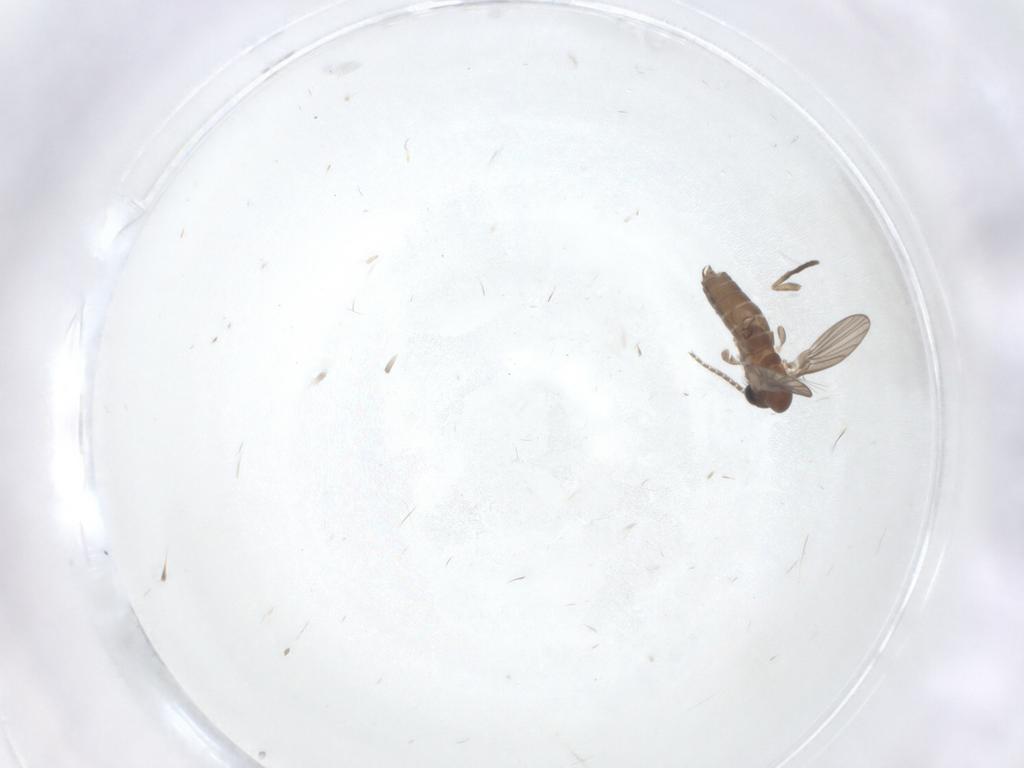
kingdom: Animalia
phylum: Arthropoda
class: Insecta
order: Diptera
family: Psychodidae
